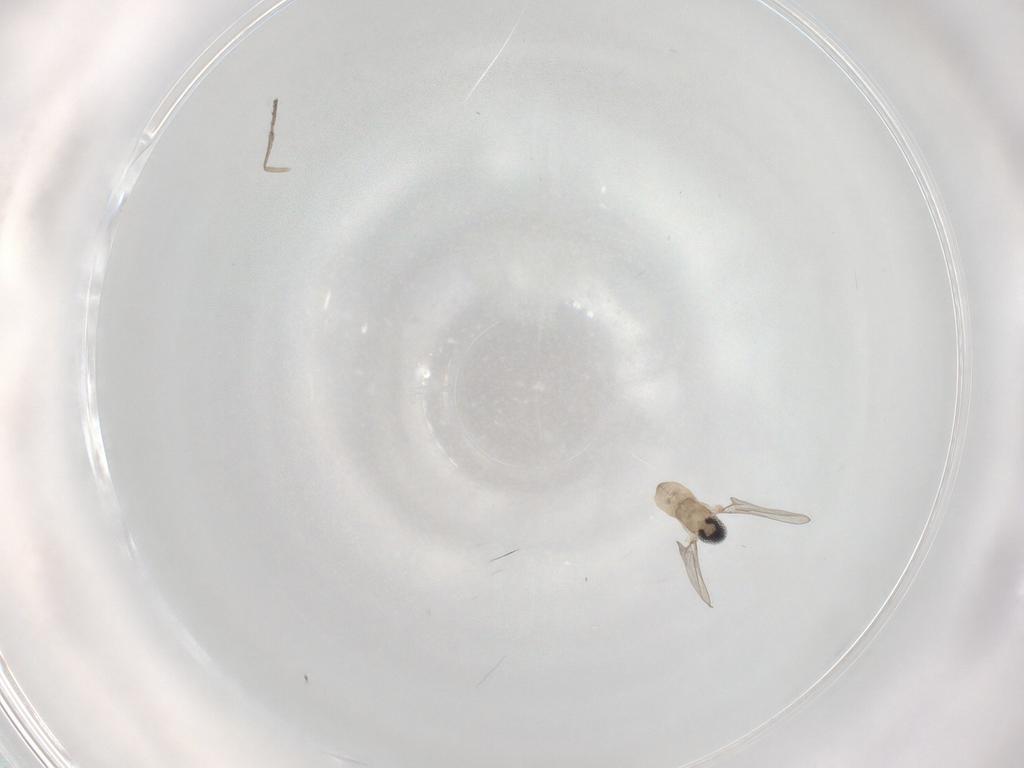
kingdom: Animalia
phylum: Arthropoda
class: Insecta
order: Diptera
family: Cecidomyiidae
